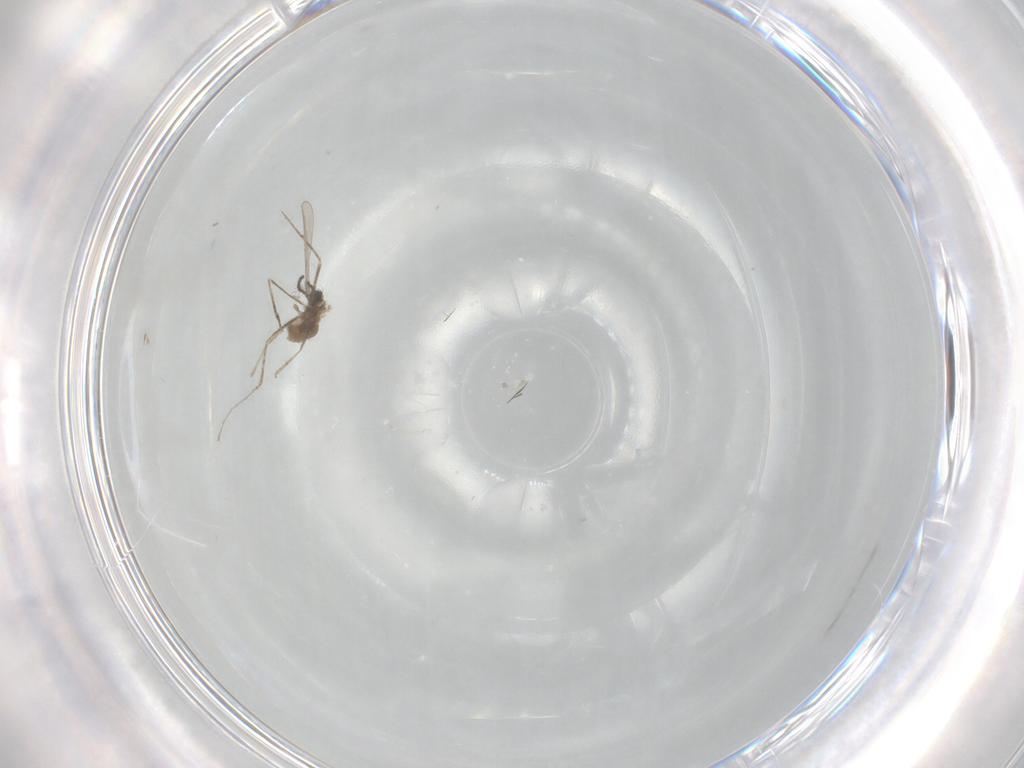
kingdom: Animalia
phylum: Arthropoda
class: Insecta
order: Diptera
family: Cecidomyiidae
